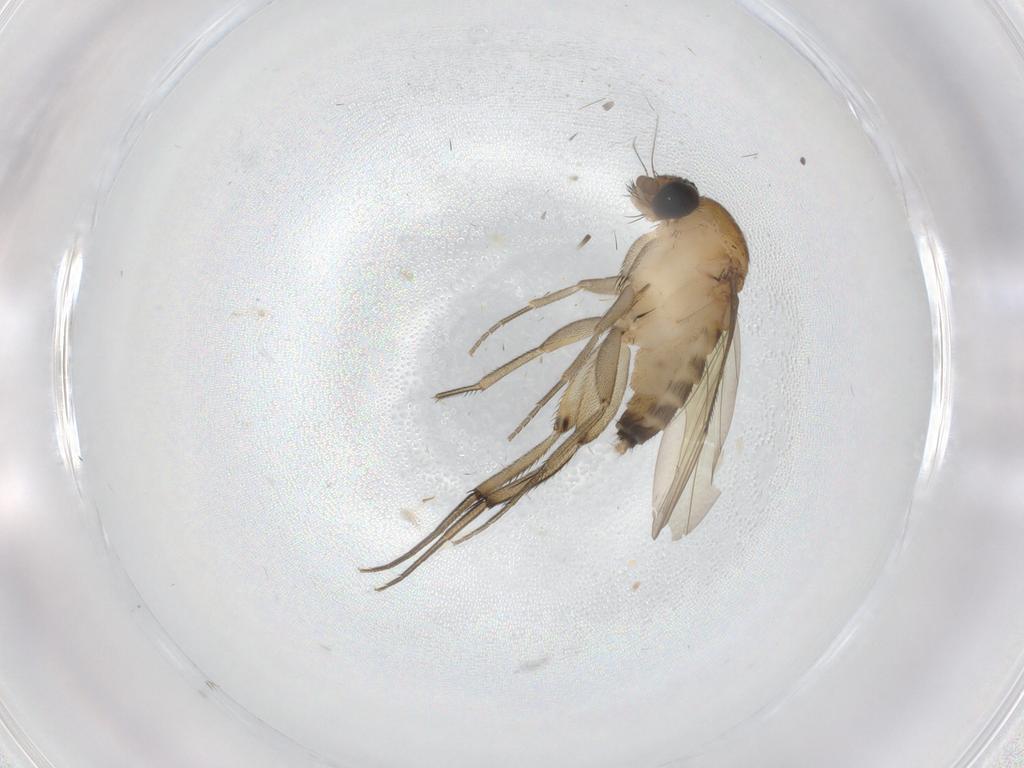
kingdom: Animalia
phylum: Arthropoda
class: Insecta
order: Diptera
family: Phoridae
